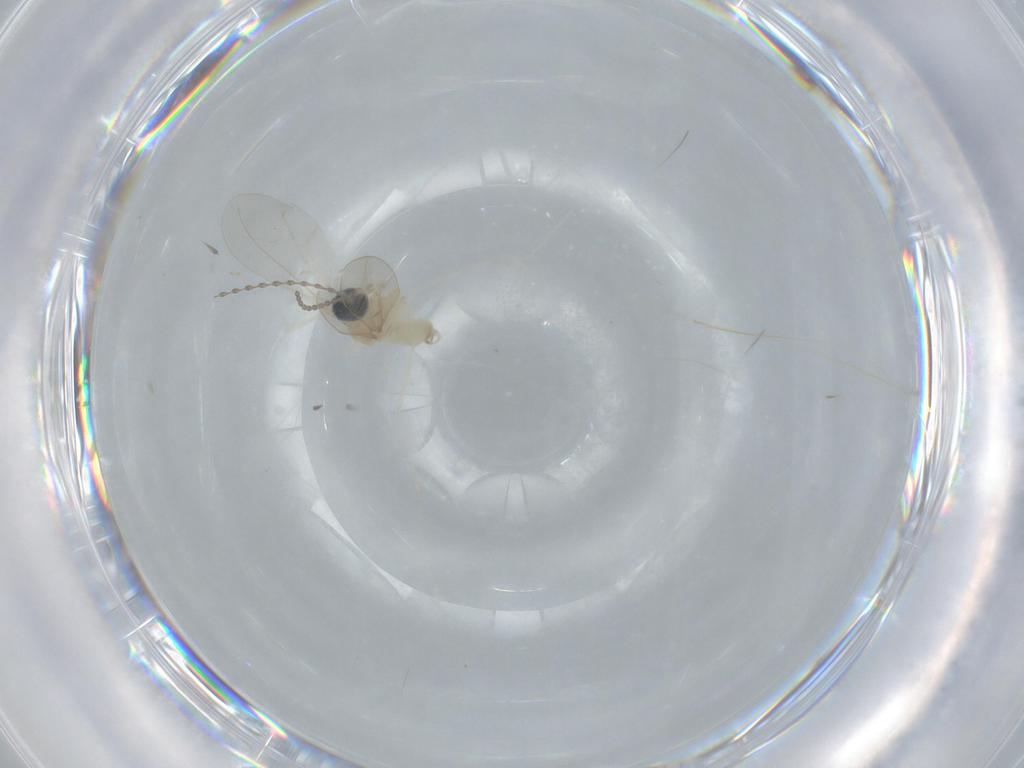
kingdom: Animalia
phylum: Arthropoda
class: Insecta
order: Diptera
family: Cecidomyiidae
